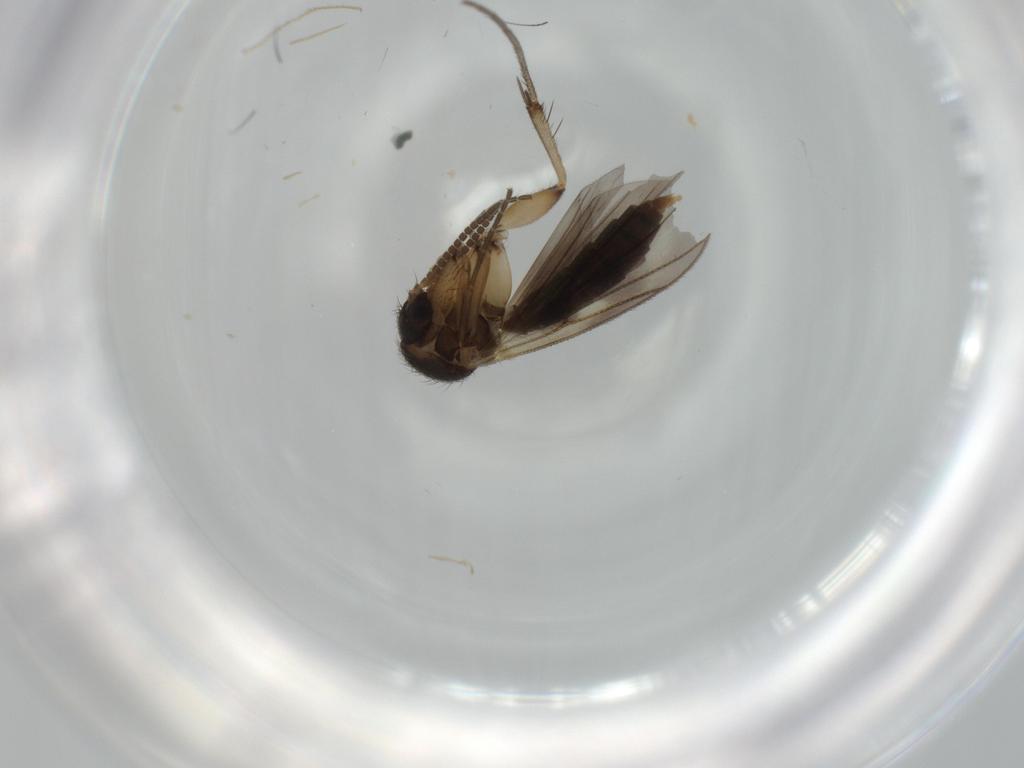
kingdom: Animalia
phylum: Arthropoda
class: Insecta
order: Diptera
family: Mycetophilidae
